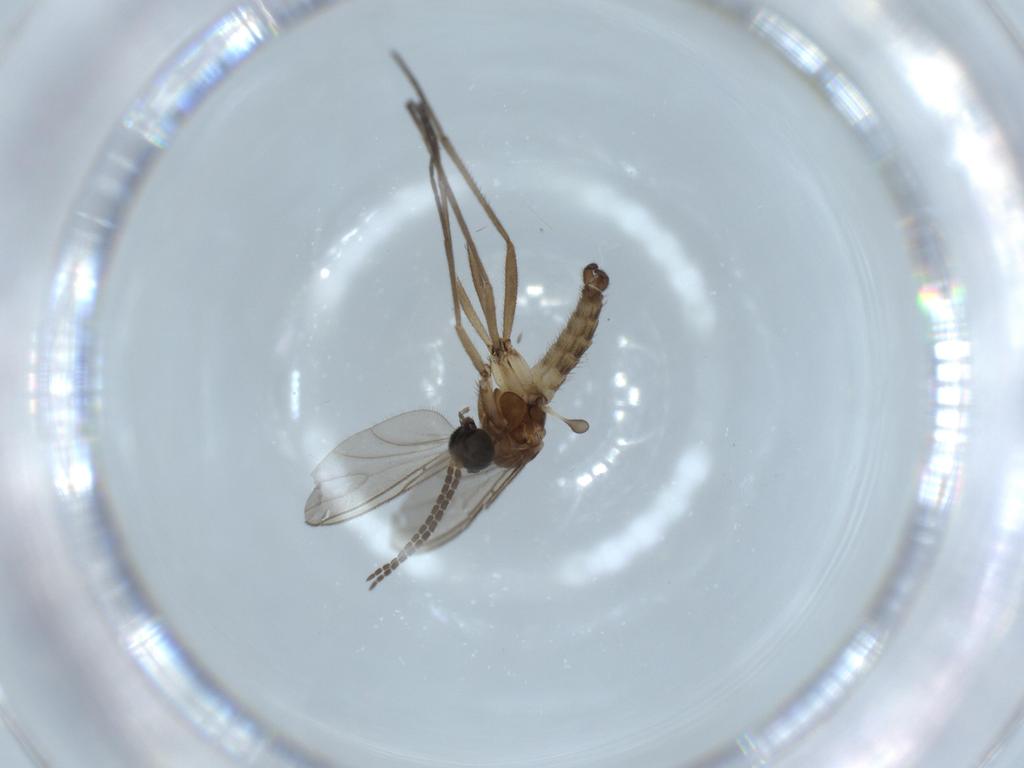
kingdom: Animalia
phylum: Arthropoda
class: Insecta
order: Diptera
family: Sciaridae
